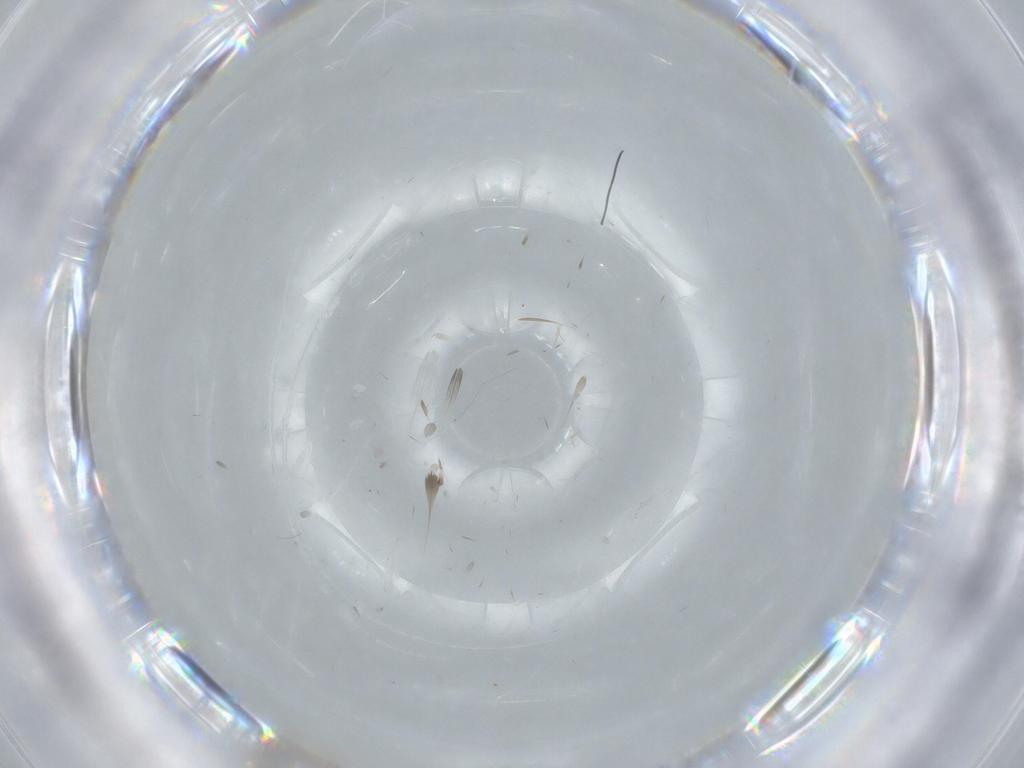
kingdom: Animalia
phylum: Arthropoda
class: Insecta
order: Diptera
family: Cecidomyiidae
